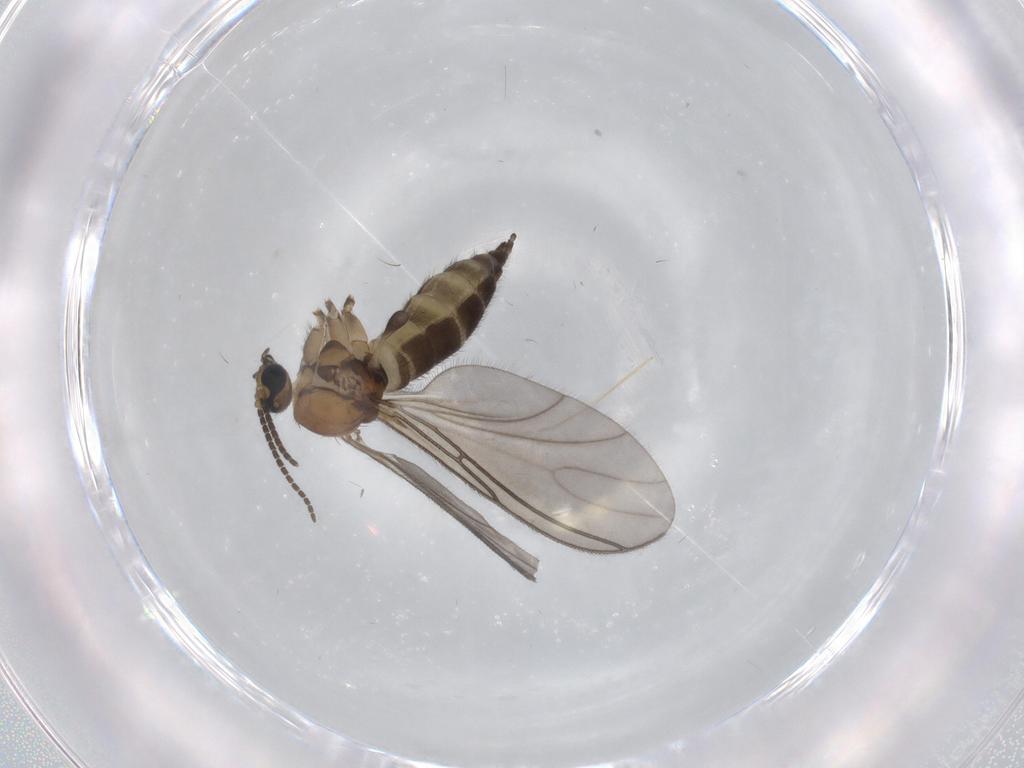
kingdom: Animalia
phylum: Arthropoda
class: Insecta
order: Diptera
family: Sciaridae
